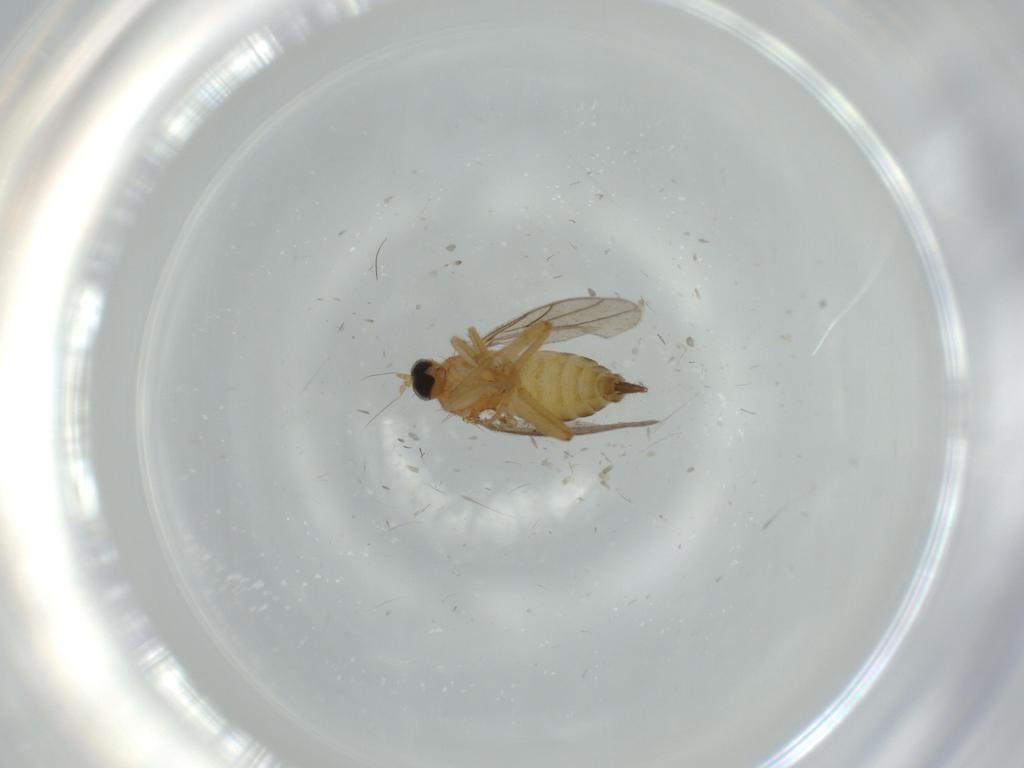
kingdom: Animalia
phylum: Arthropoda
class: Insecta
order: Diptera
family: Hybotidae
